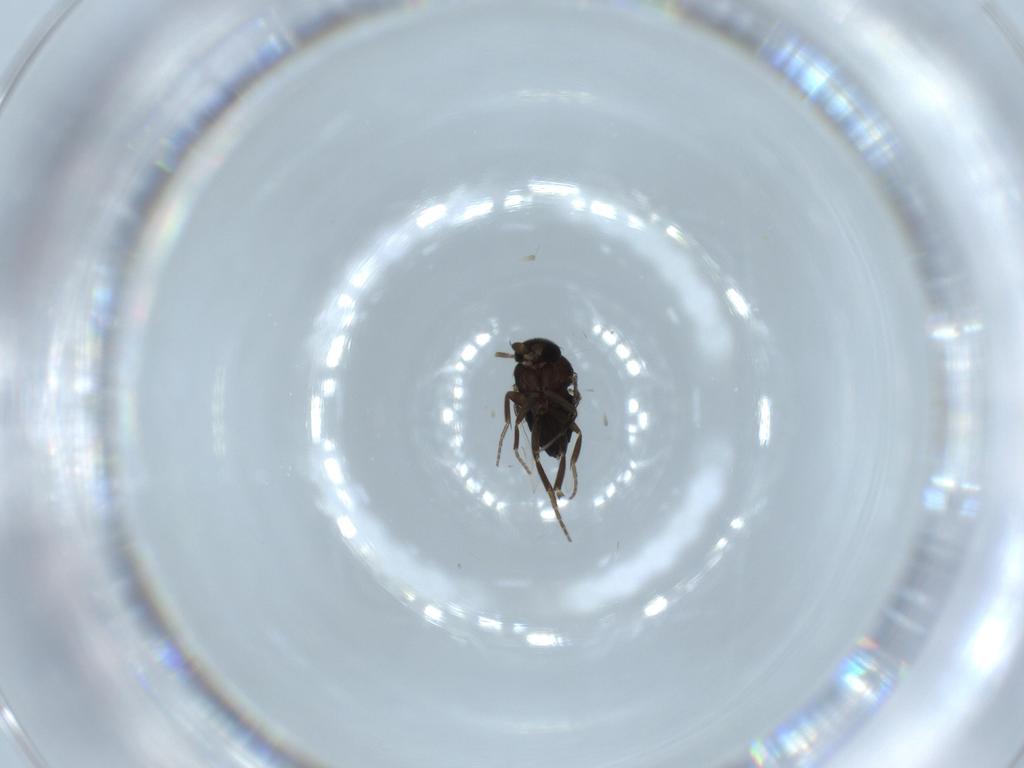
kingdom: Animalia
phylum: Arthropoda
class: Insecta
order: Diptera
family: Phoridae
